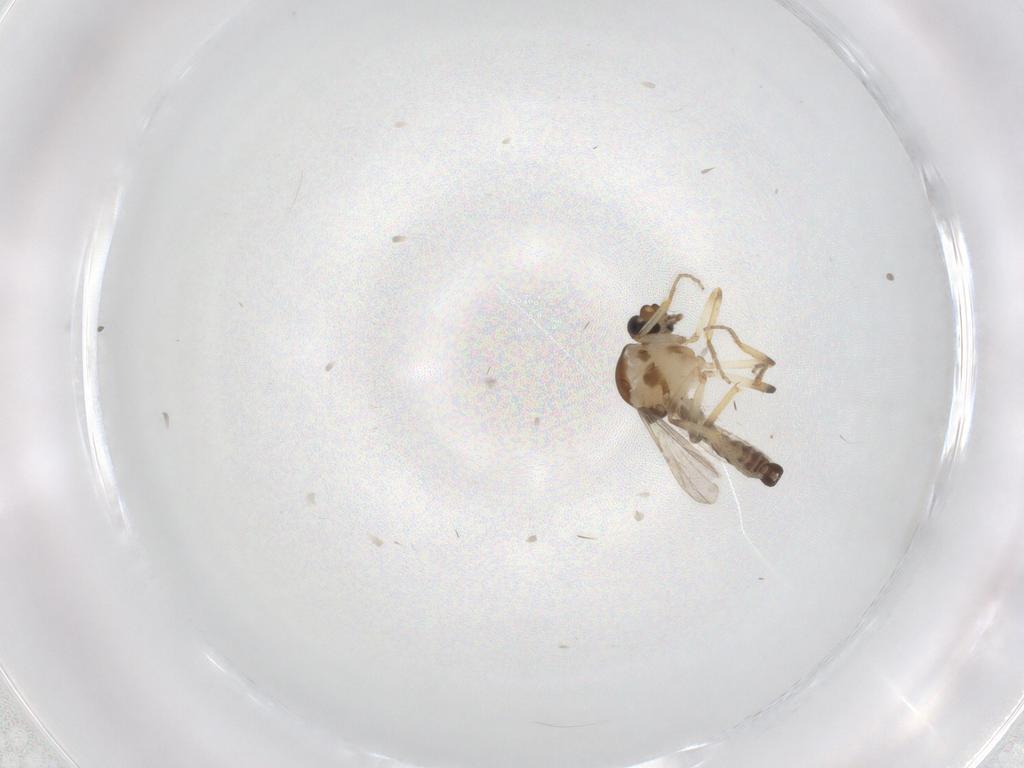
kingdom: Animalia
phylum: Arthropoda
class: Insecta
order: Diptera
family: Ceratopogonidae
